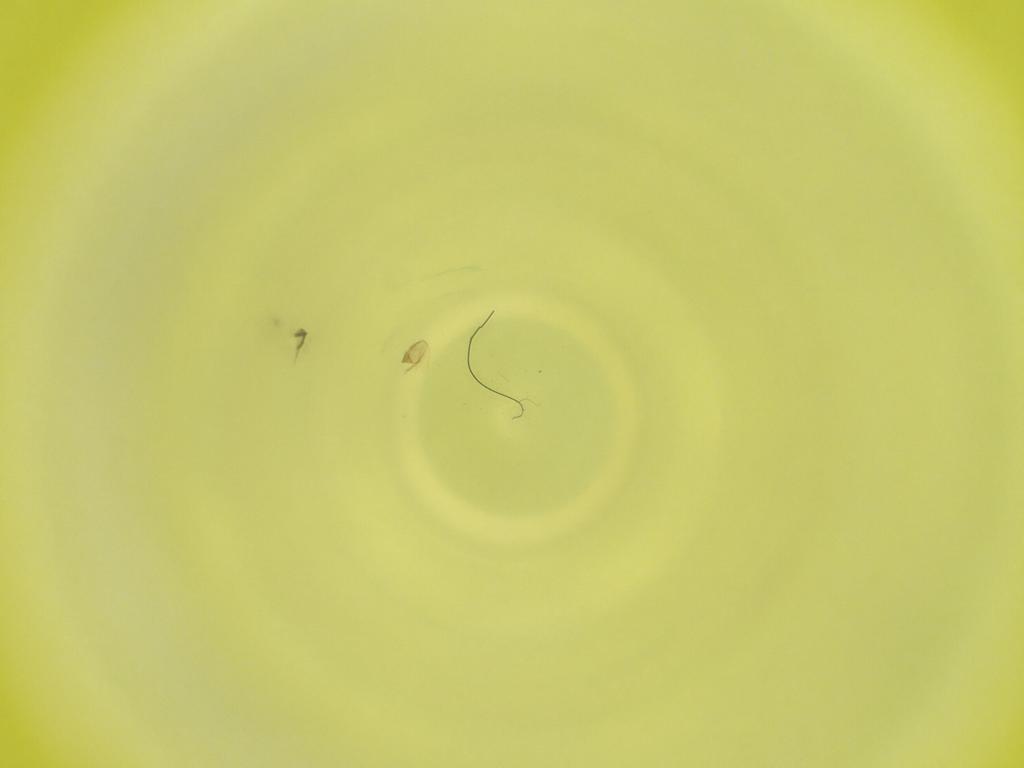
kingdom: Animalia
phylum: Arthropoda
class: Insecta
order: Diptera
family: Cecidomyiidae
